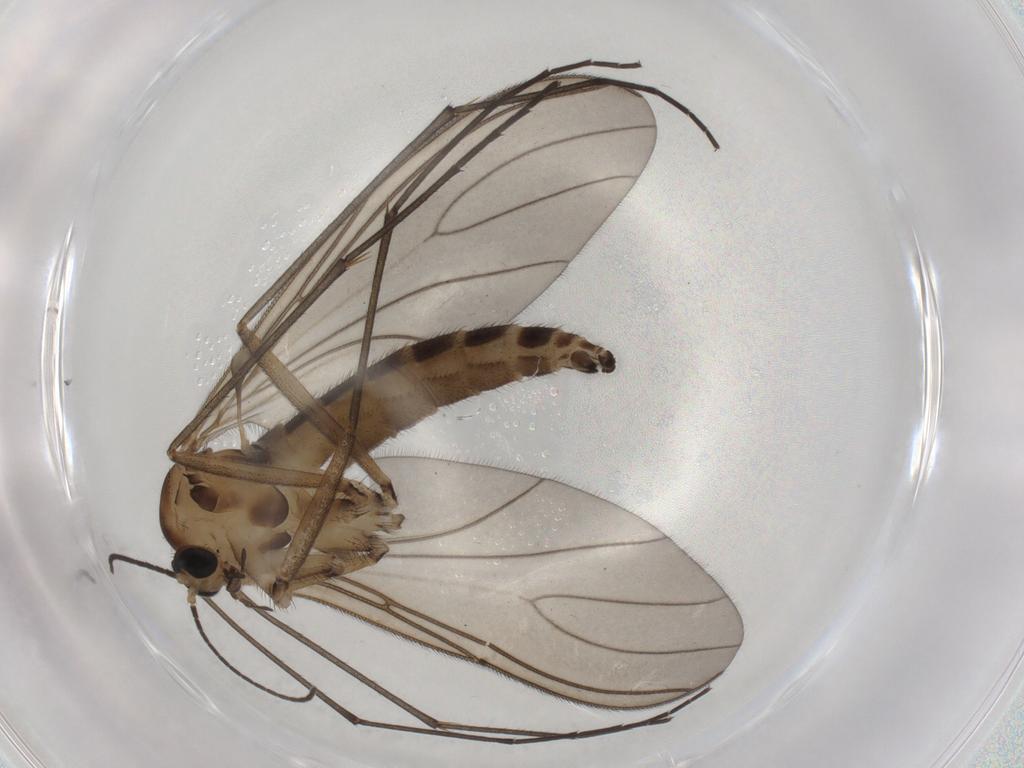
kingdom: Animalia
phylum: Arthropoda
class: Insecta
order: Diptera
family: Sciaridae
